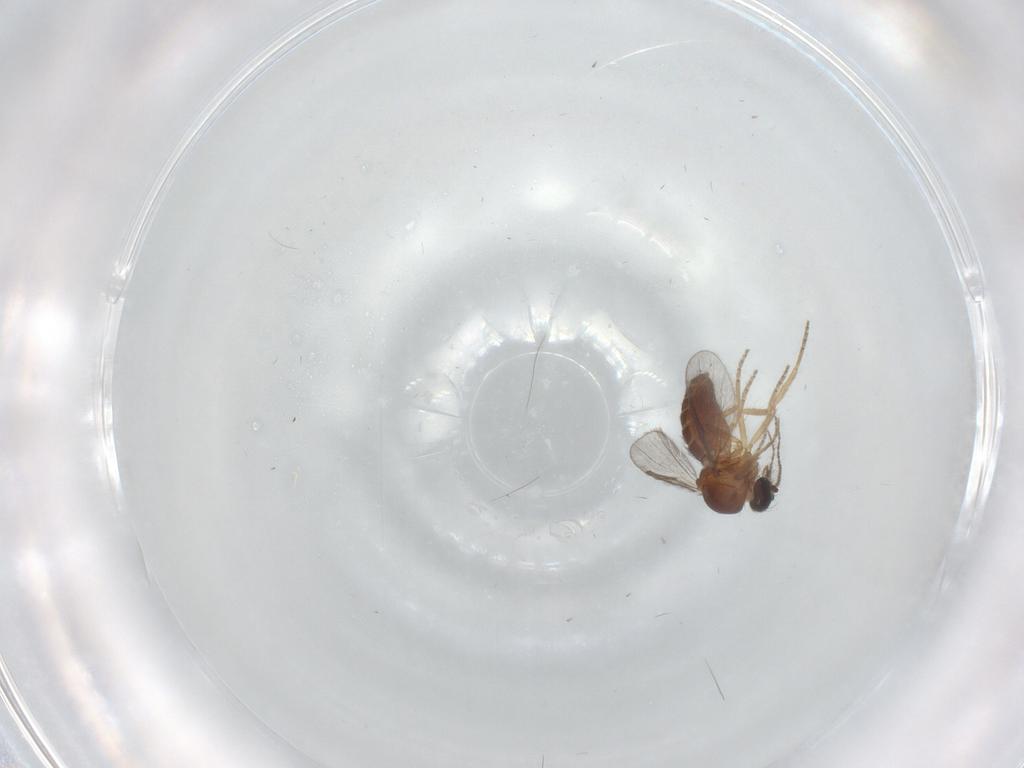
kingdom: Animalia
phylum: Arthropoda
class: Insecta
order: Diptera
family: Ceratopogonidae
